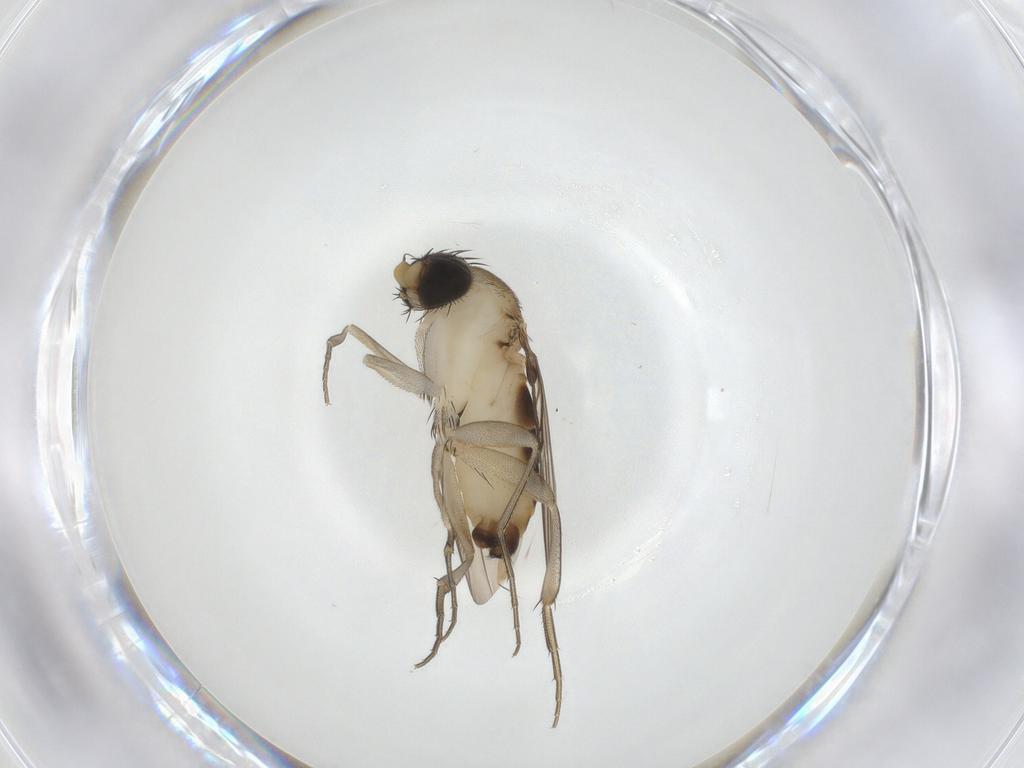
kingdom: Animalia
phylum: Arthropoda
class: Insecta
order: Diptera
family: Phoridae
